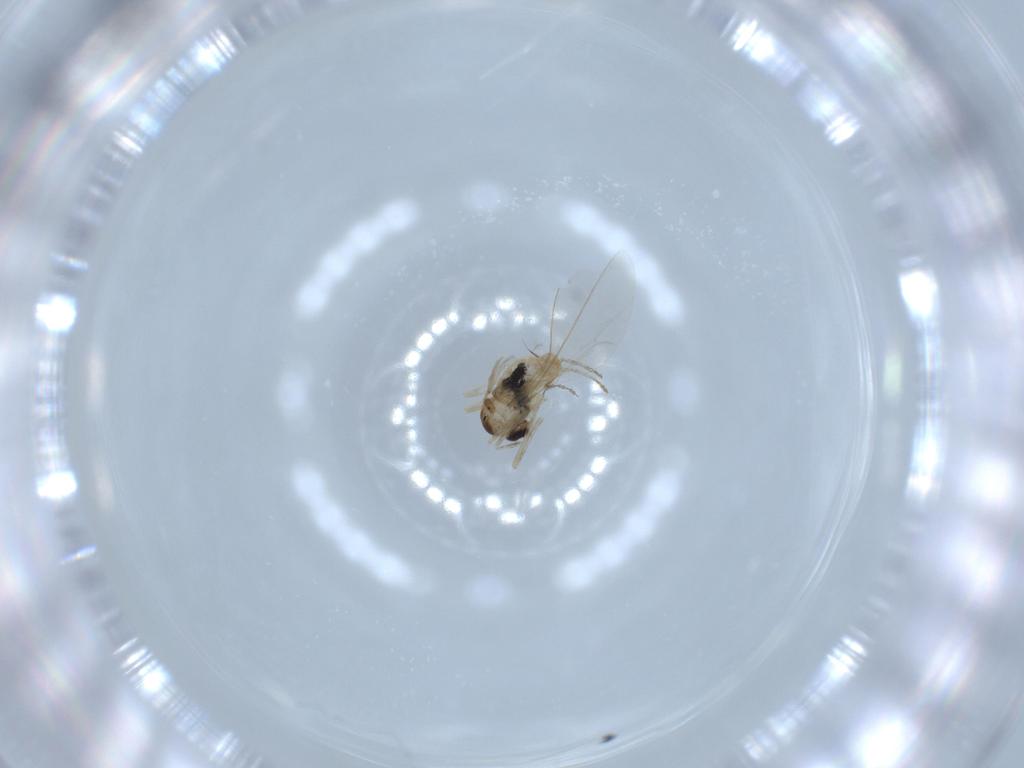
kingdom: Animalia
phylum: Arthropoda
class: Insecta
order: Diptera
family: Cecidomyiidae
